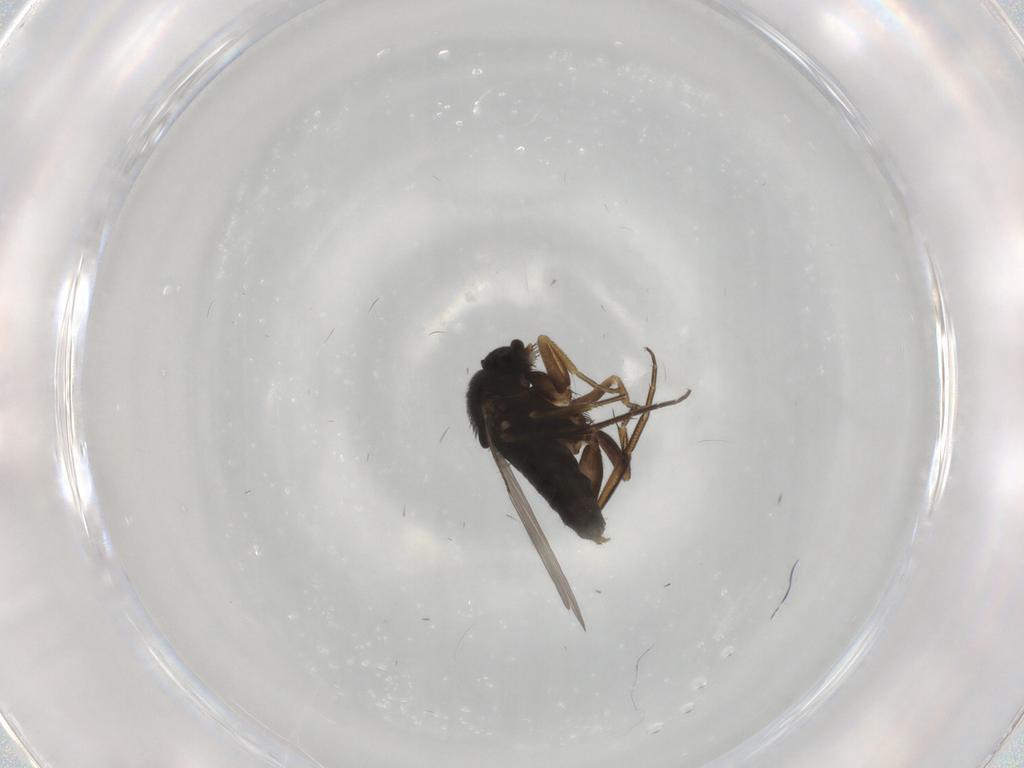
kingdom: Animalia
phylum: Arthropoda
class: Insecta
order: Diptera
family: Phoridae
